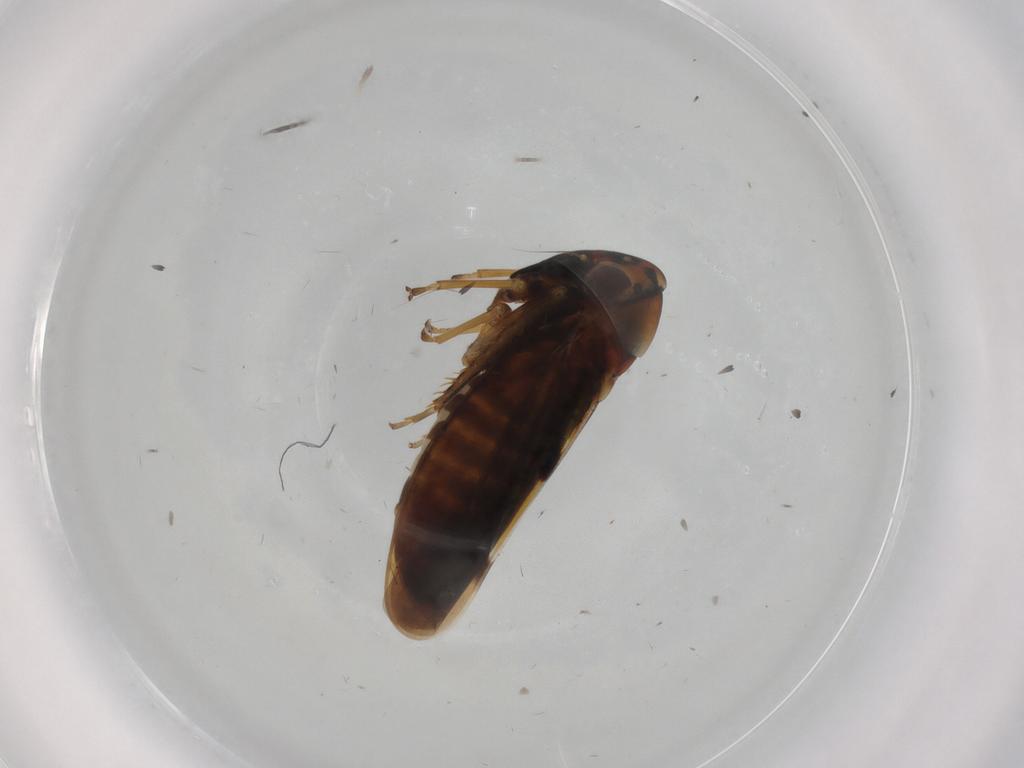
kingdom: Animalia
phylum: Arthropoda
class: Insecta
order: Hemiptera
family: Cicadellidae
